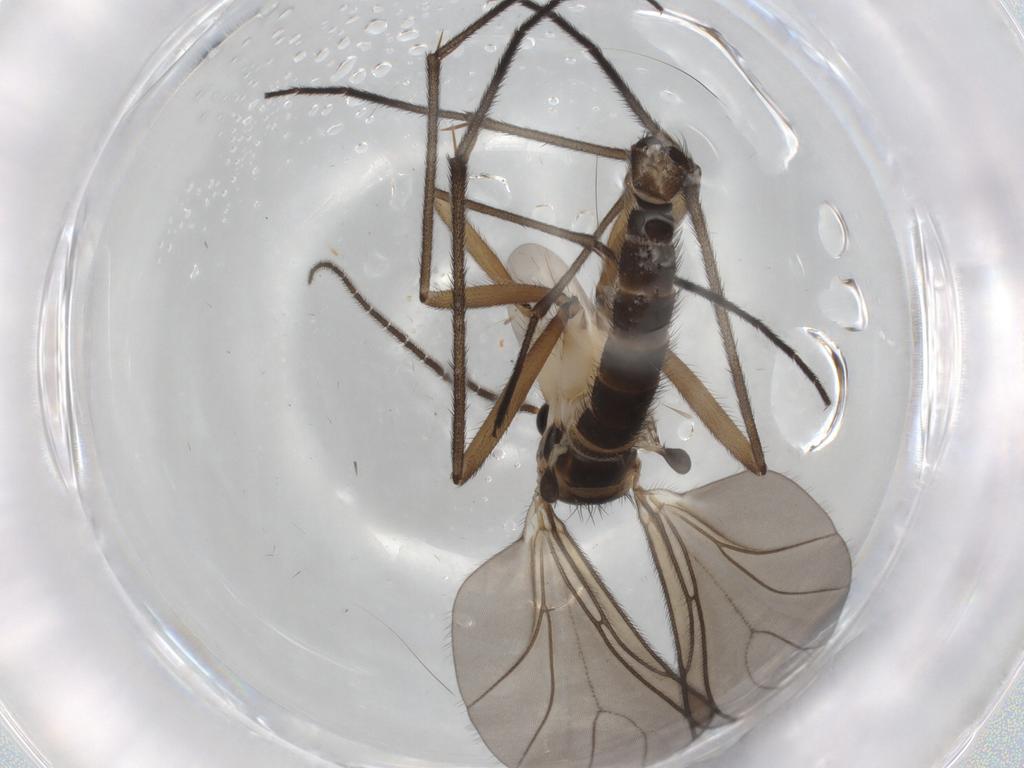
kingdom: Animalia
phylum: Arthropoda
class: Insecta
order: Diptera
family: Sciaridae
